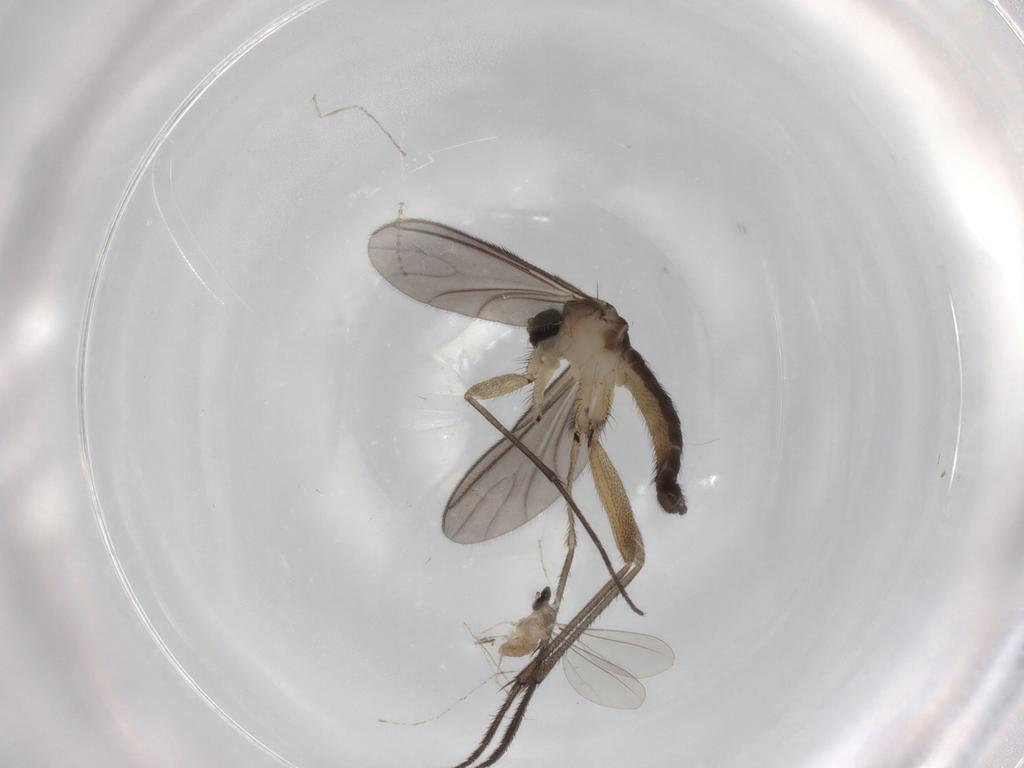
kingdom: Animalia
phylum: Arthropoda
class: Insecta
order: Diptera
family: Sciaridae
